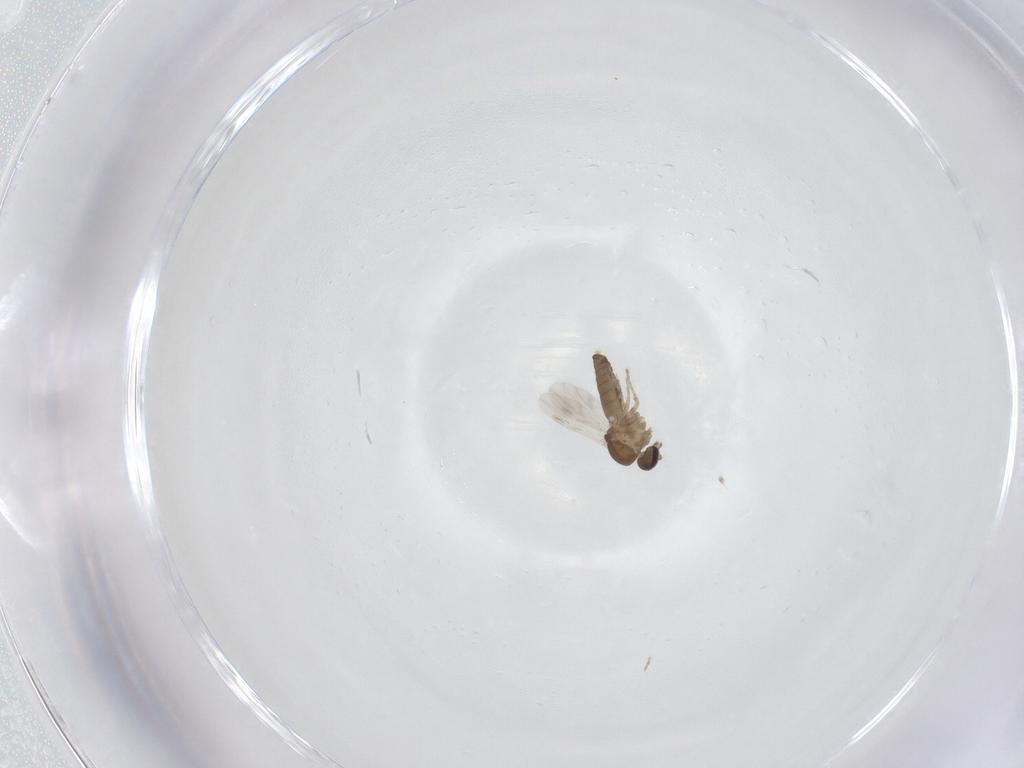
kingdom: Animalia
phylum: Arthropoda
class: Insecta
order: Diptera
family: Ceratopogonidae
